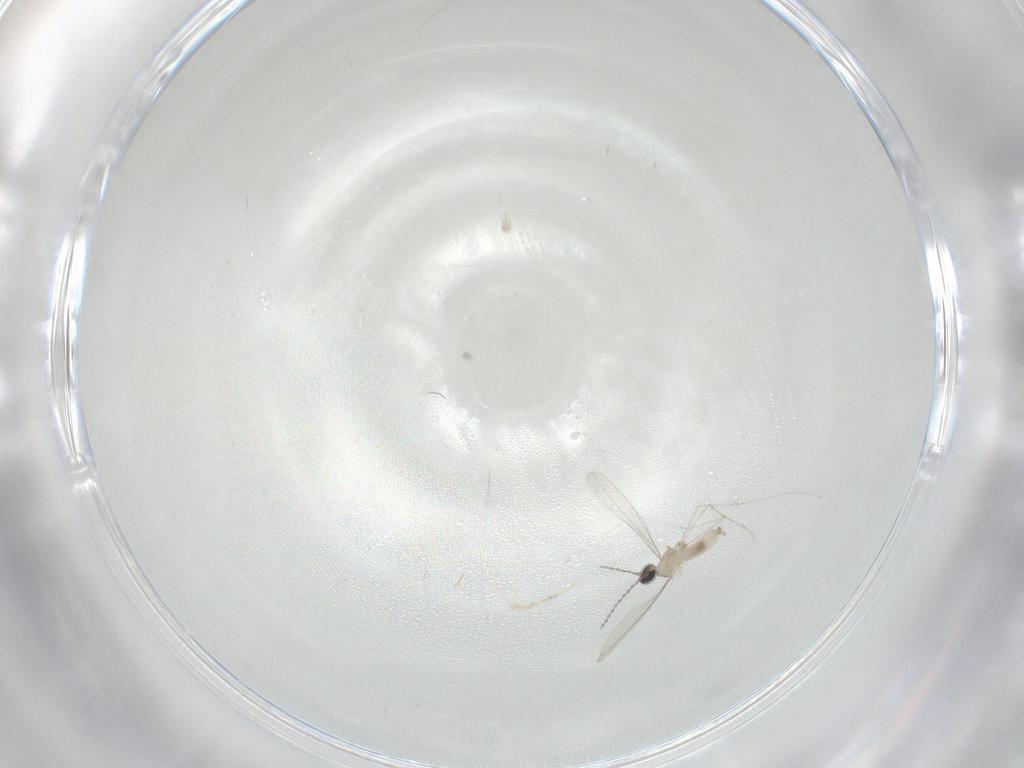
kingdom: Animalia
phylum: Arthropoda
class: Insecta
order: Diptera
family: Cecidomyiidae
